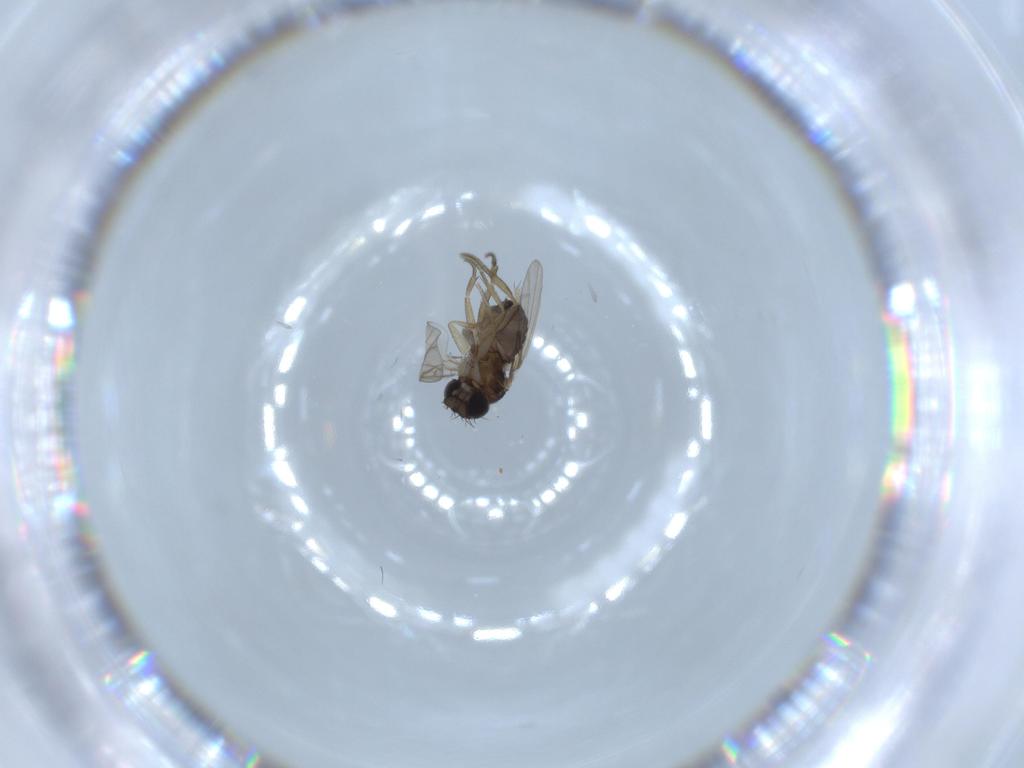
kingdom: Animalia
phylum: Arthropoda
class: Insecta
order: Diptera
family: Phoridae
